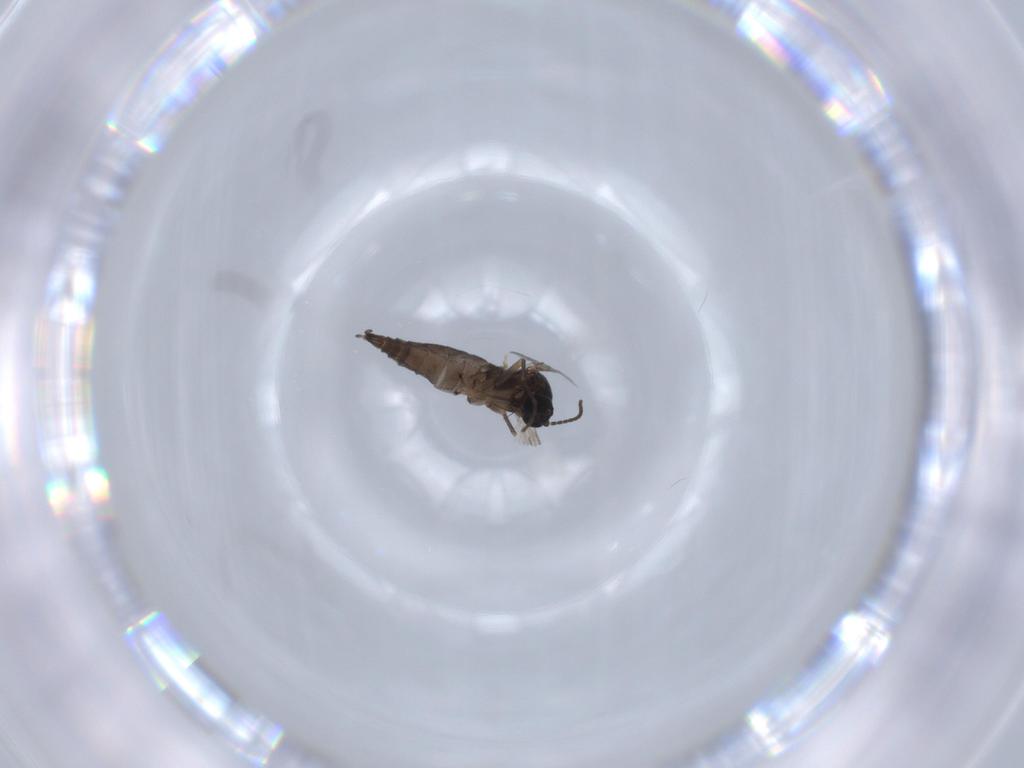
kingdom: Animalia
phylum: Arthropoda
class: Insecta
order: Diptera
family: Sciaridae
